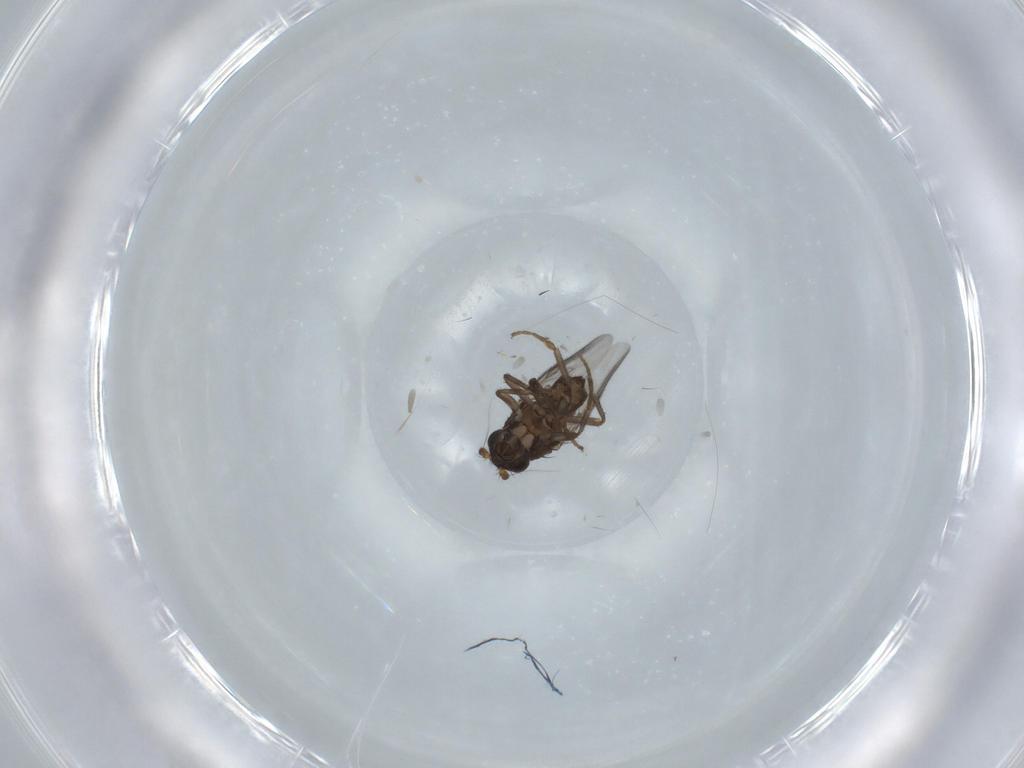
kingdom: Animalia
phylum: Arthropoda
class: Insecta
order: Diptera
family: Sphaeroceridae
